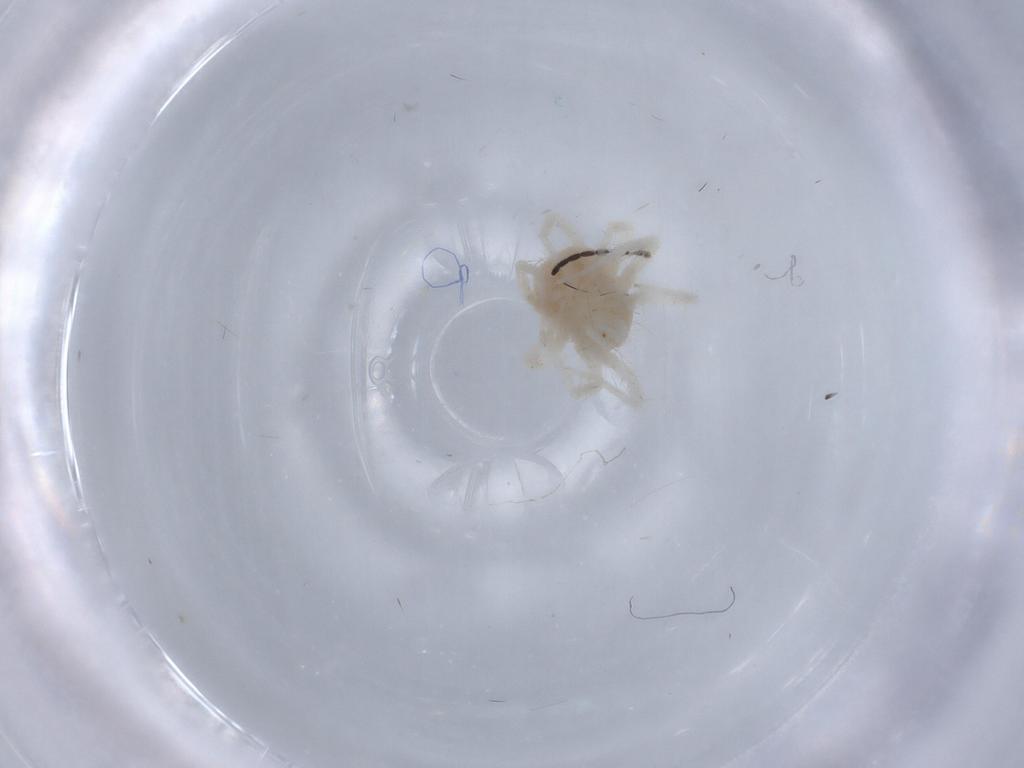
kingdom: Animalia
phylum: Arthropoda
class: Arachnida
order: Trombidiformes
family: Anystidae
